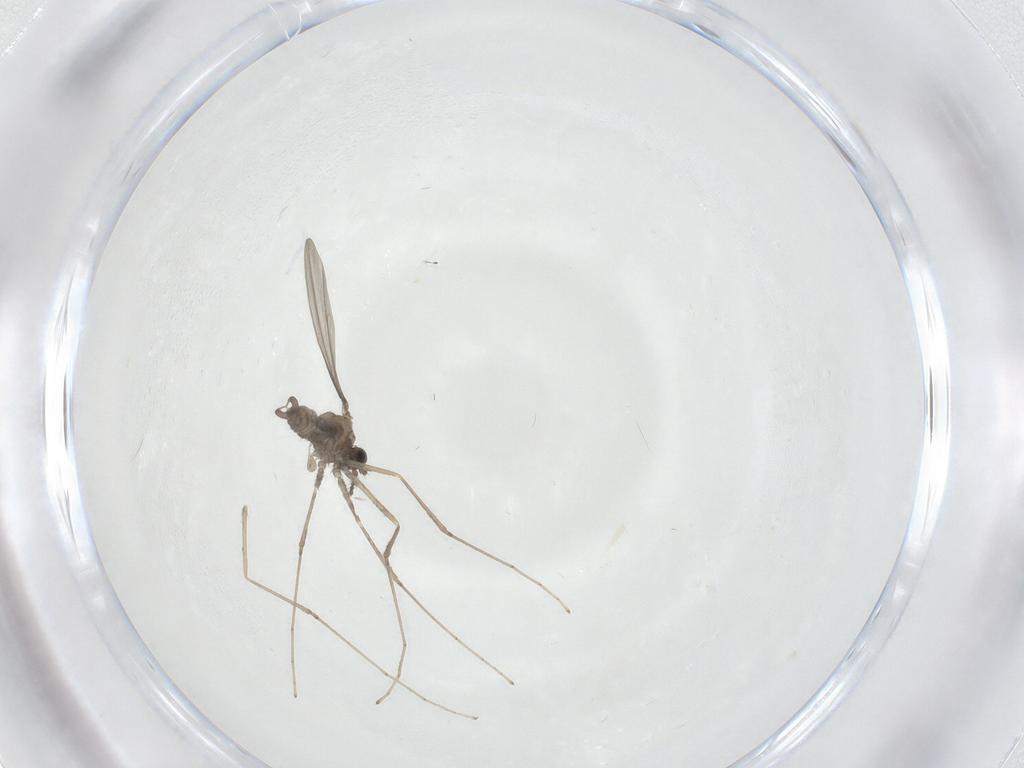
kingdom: Animalia
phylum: Arthropoda
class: Insecta
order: Diptera
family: Cecidomyiidae
